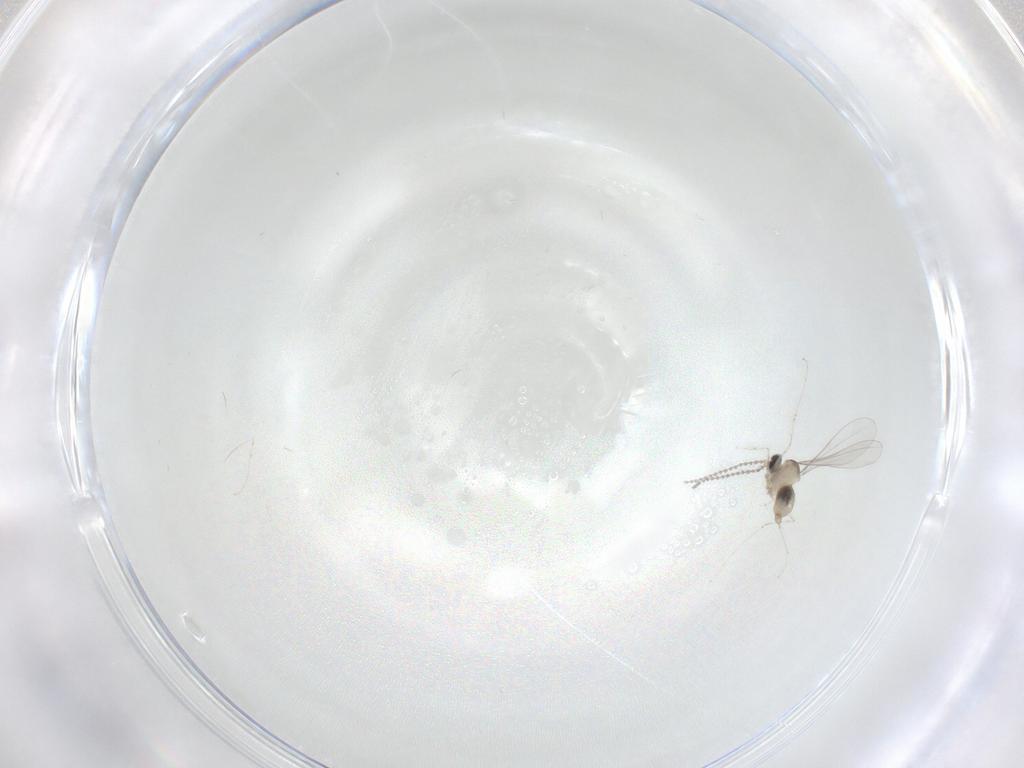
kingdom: Animalia
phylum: Arthropoda
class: Insecta
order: Diptera
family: Cecidomyiidae
